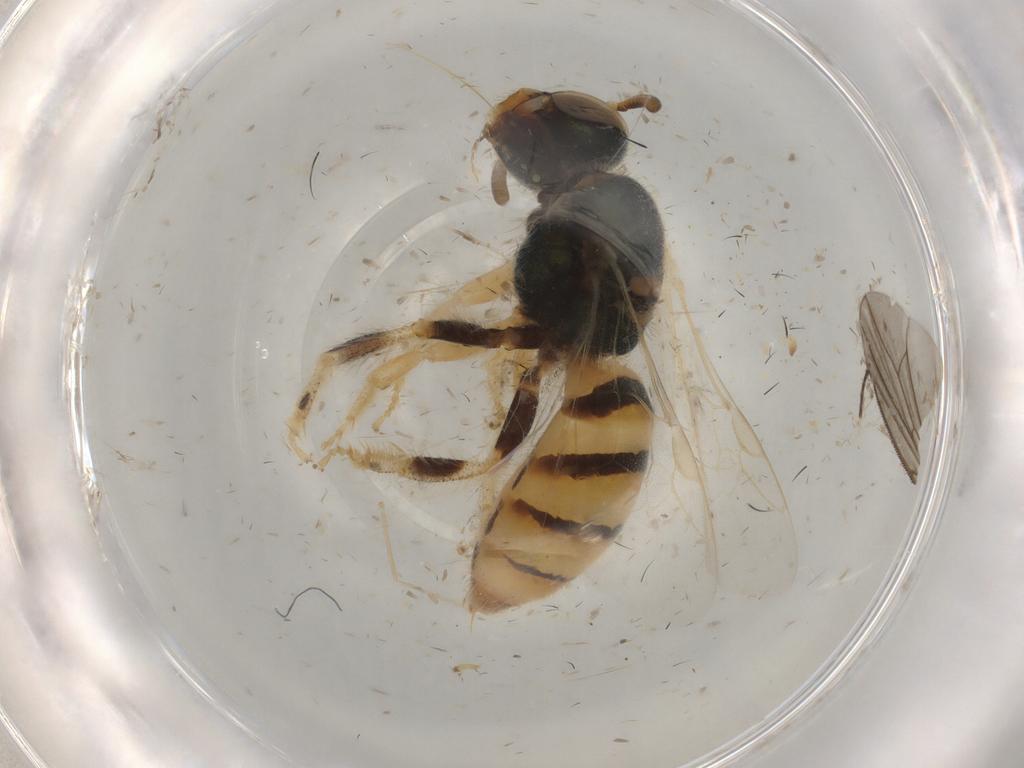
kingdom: Animalia
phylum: Arthropoda
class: Insecta
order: Hymenoptera
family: Halictidae
